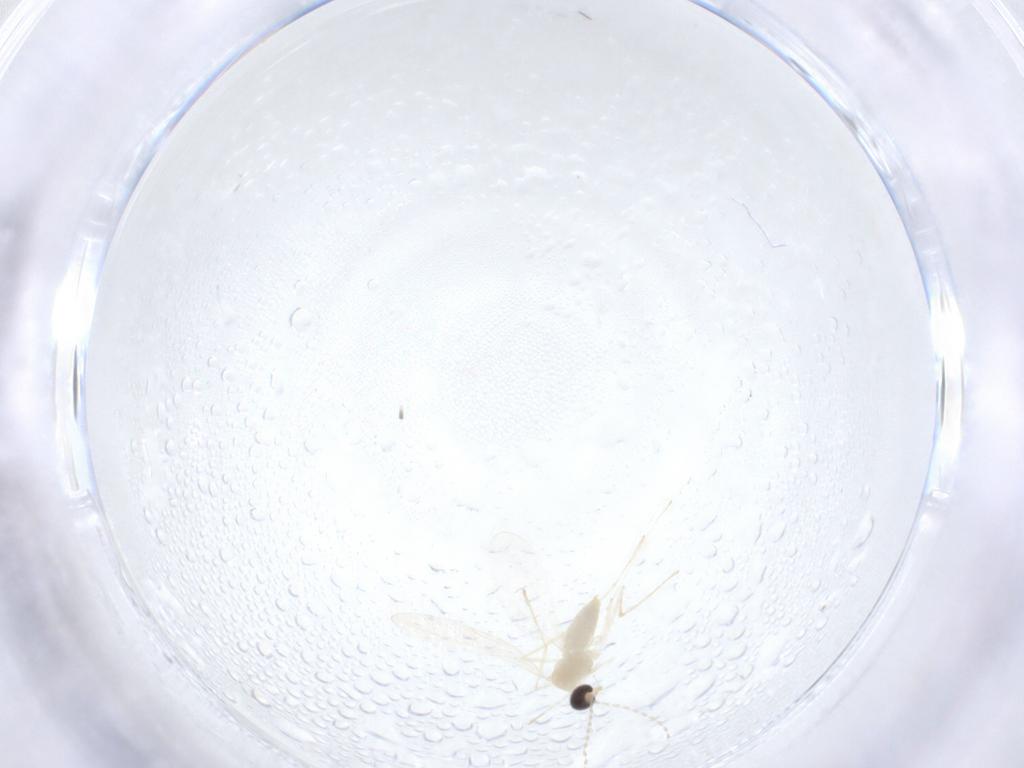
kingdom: Animalia
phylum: Arthropoda
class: Insecta
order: Diptera
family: Cecidomyiidae
